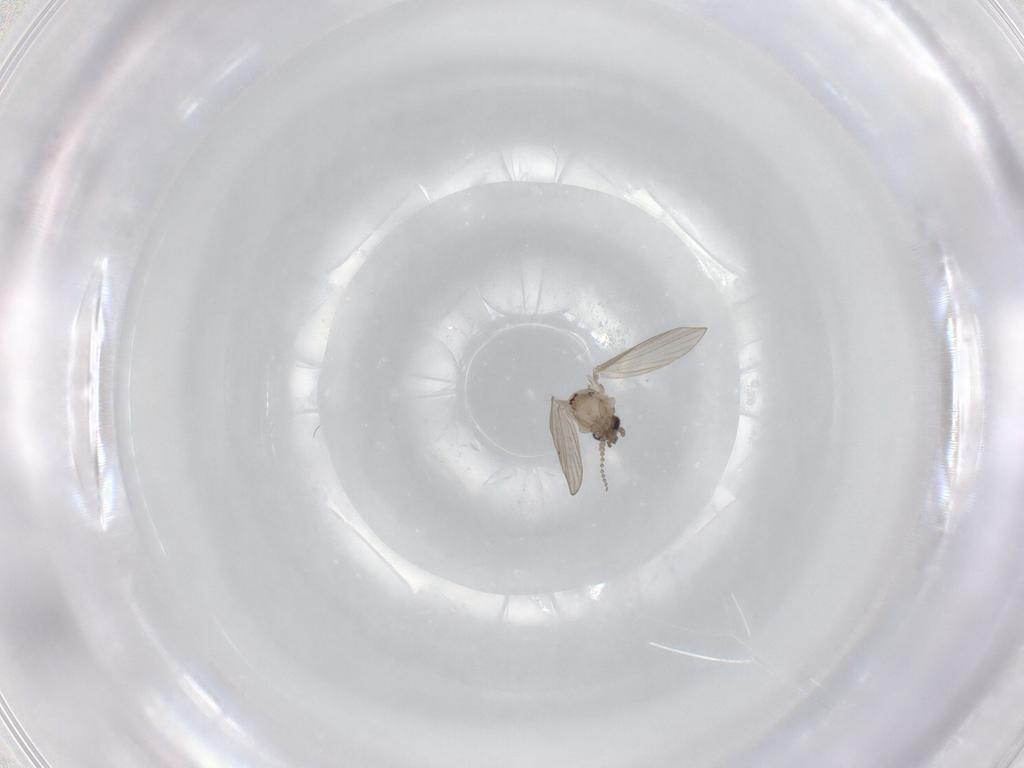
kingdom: Animalia
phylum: Arthropoda
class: Insecta
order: Diptera
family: Psychodidae
